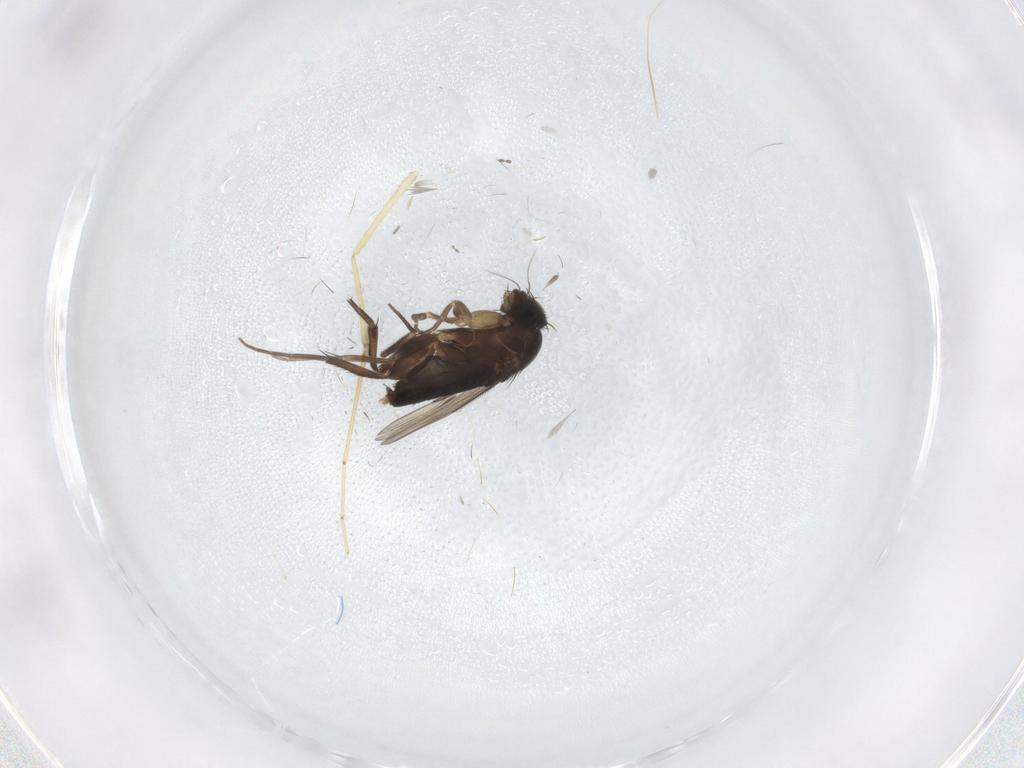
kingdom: Animalia
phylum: Arthropoda
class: Insecta
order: Diptera
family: Phoridae
